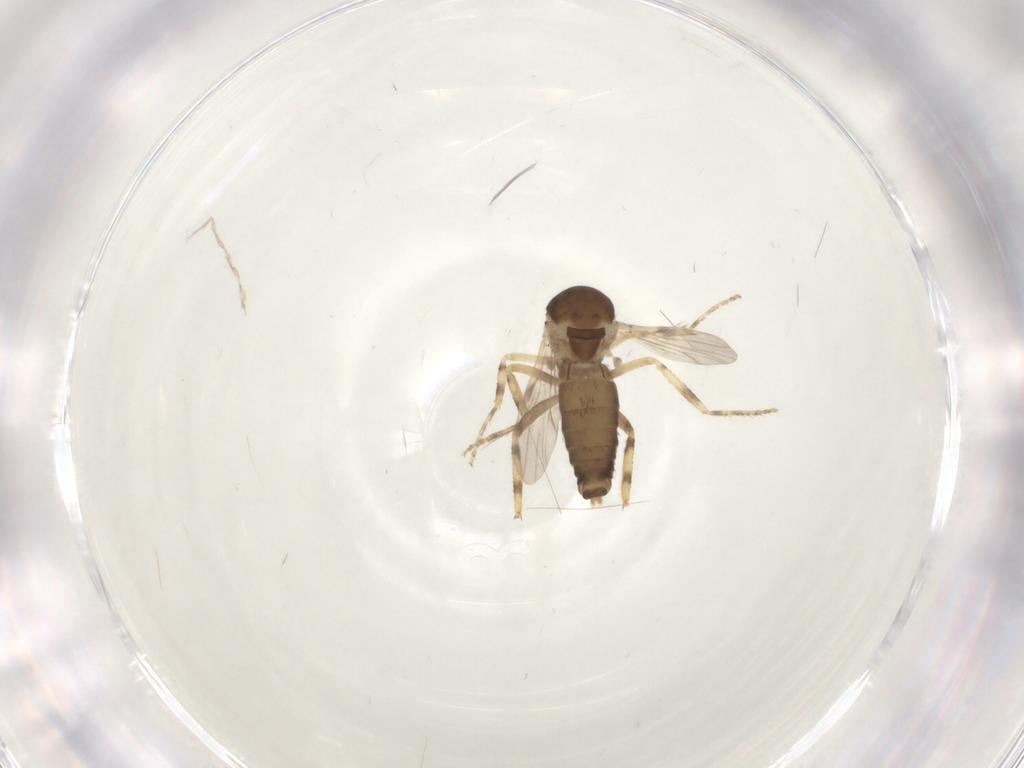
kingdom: Animalia
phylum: Arthropoda
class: Insecta
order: Diptera
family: Ceratopogonidae
